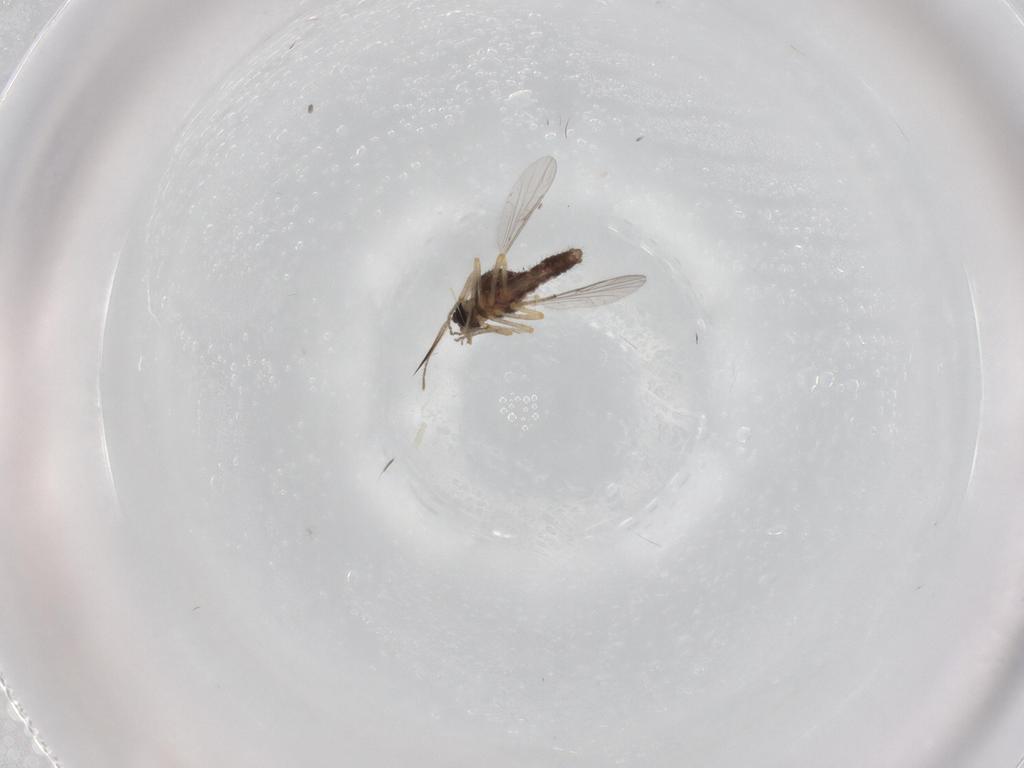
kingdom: Animalia
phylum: Arthropoda
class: Insecta
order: Diptera
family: Ceratopogonidae
